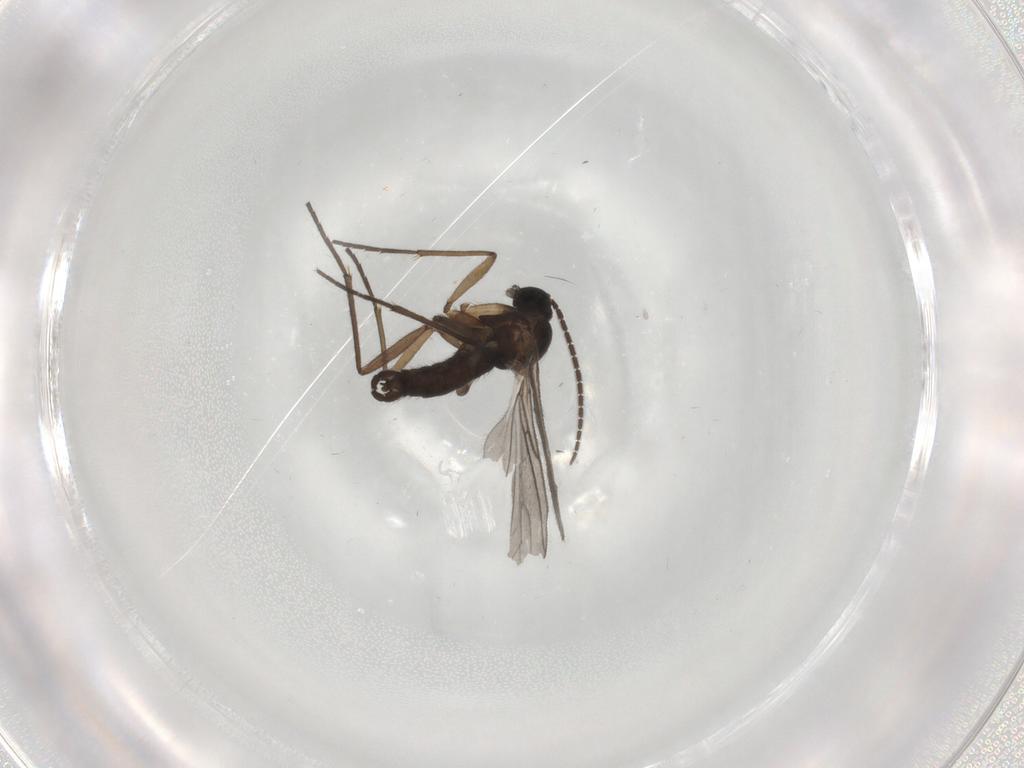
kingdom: Animalia
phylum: Arthropoda
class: Insecta
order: Diptera
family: Sciaridae
